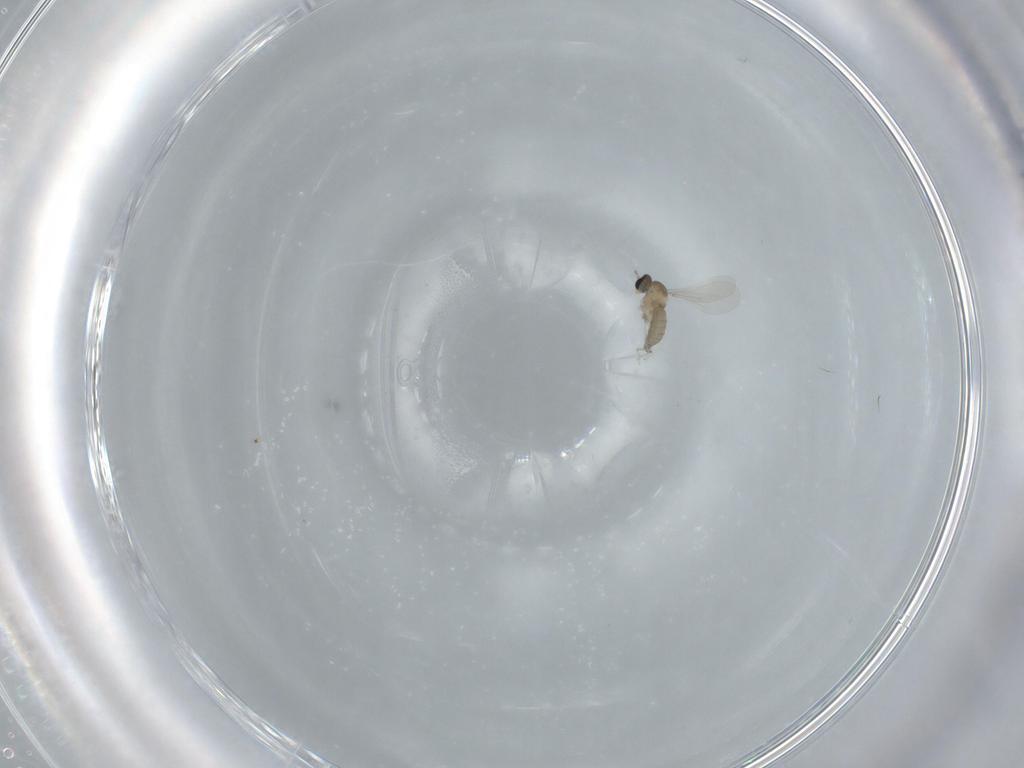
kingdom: Animalia
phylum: Arthropoda
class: Insecta
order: Diptera
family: Cecidomyiidae
